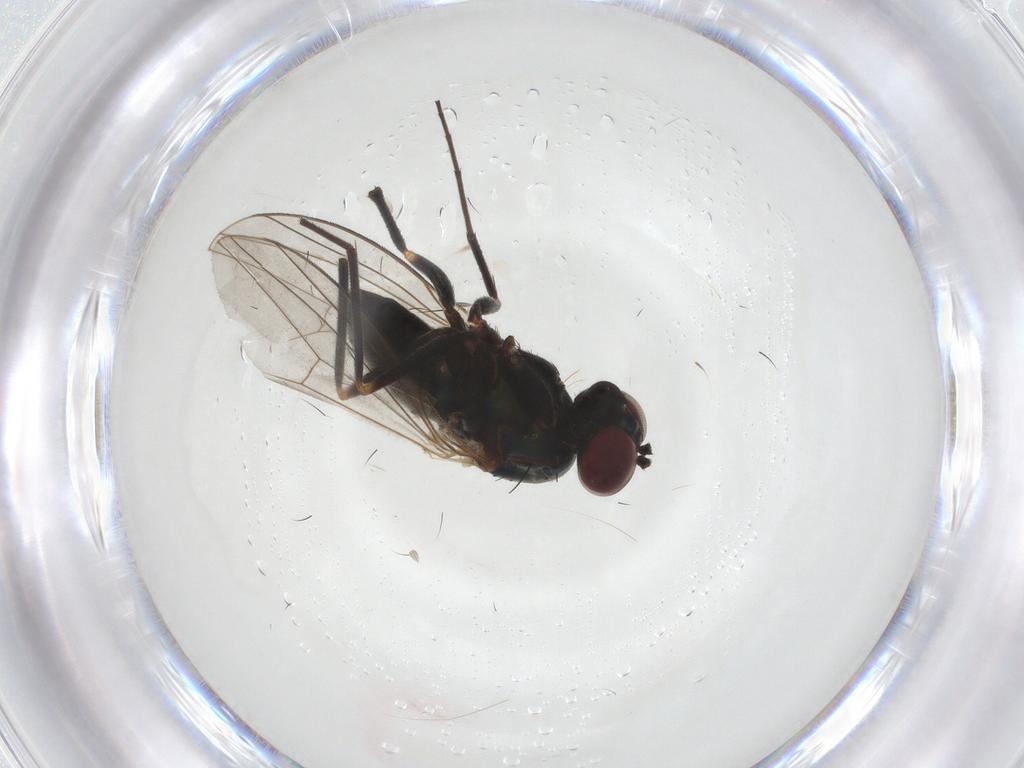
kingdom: Animalia
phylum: Arthropoda
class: Insecta
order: Diptera
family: Dolichopodidae
